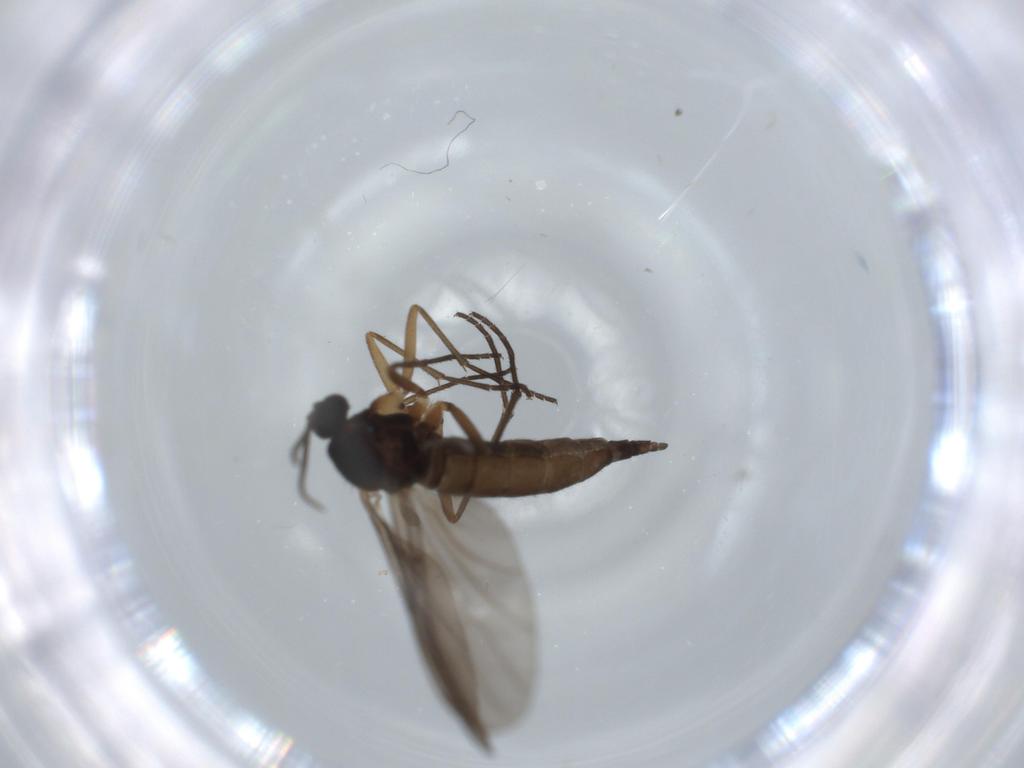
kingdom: Animalia
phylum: Arthropoda
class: Insecta
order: Diptera
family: Sciaridae
